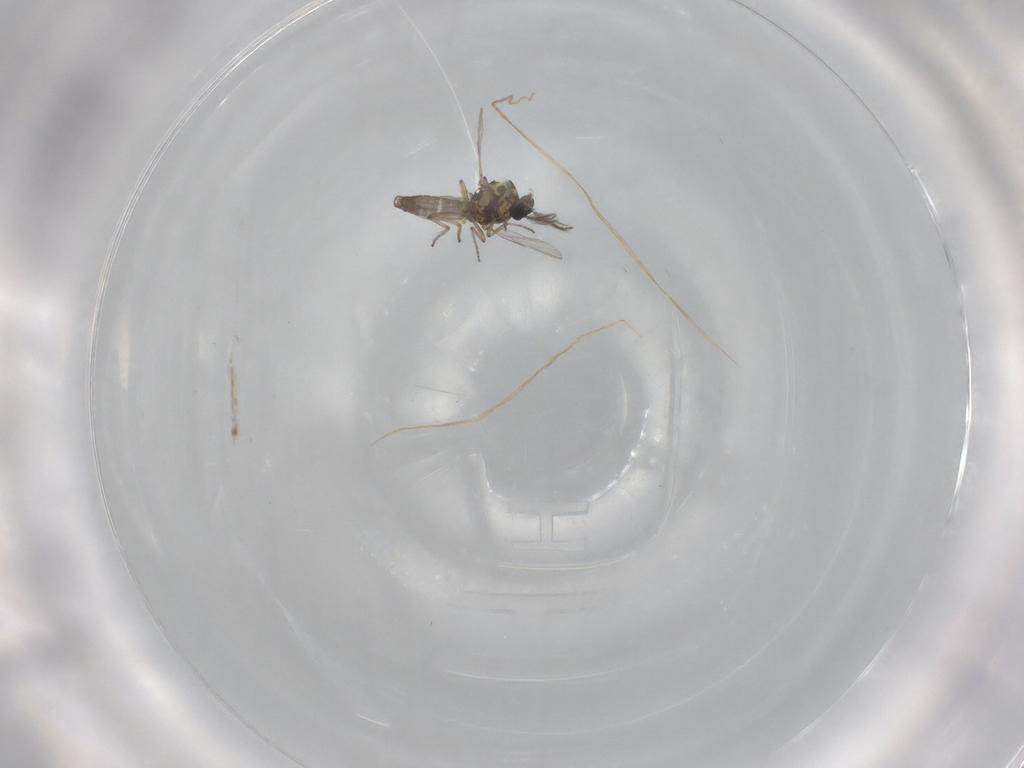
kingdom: Animalia
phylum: Arthropoda
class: Insecta
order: Diptera
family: Ceratopogonidae
